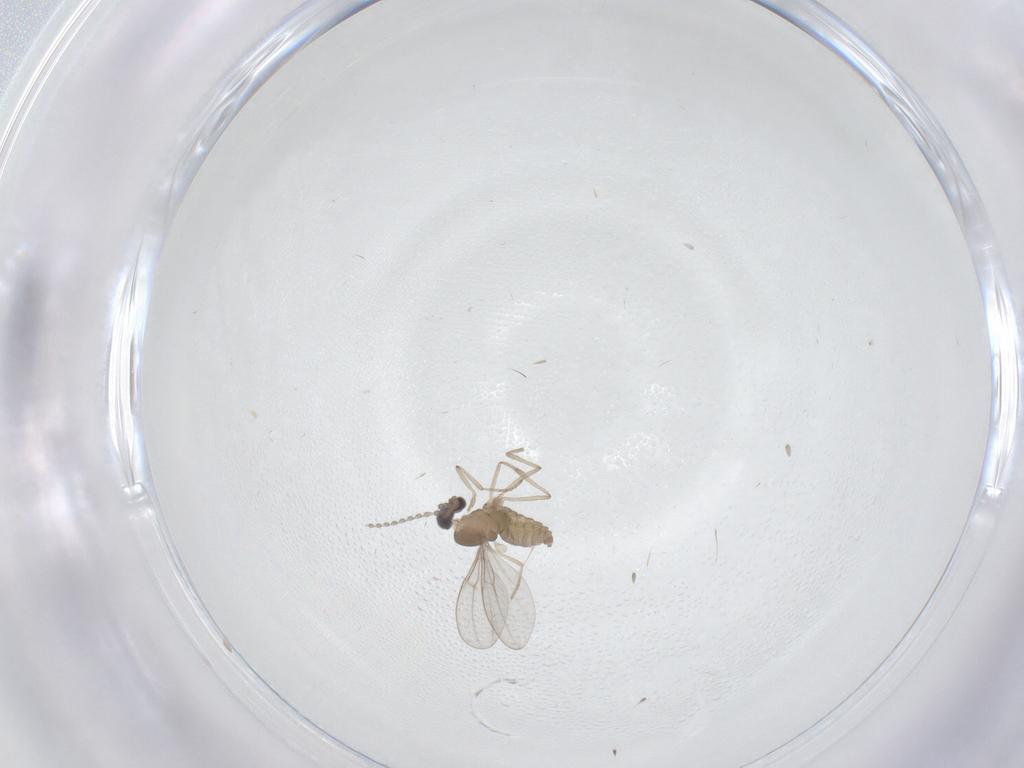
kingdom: Animalia
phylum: Arthropoda
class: Insecta
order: Diptera
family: Cecidomyiidae
